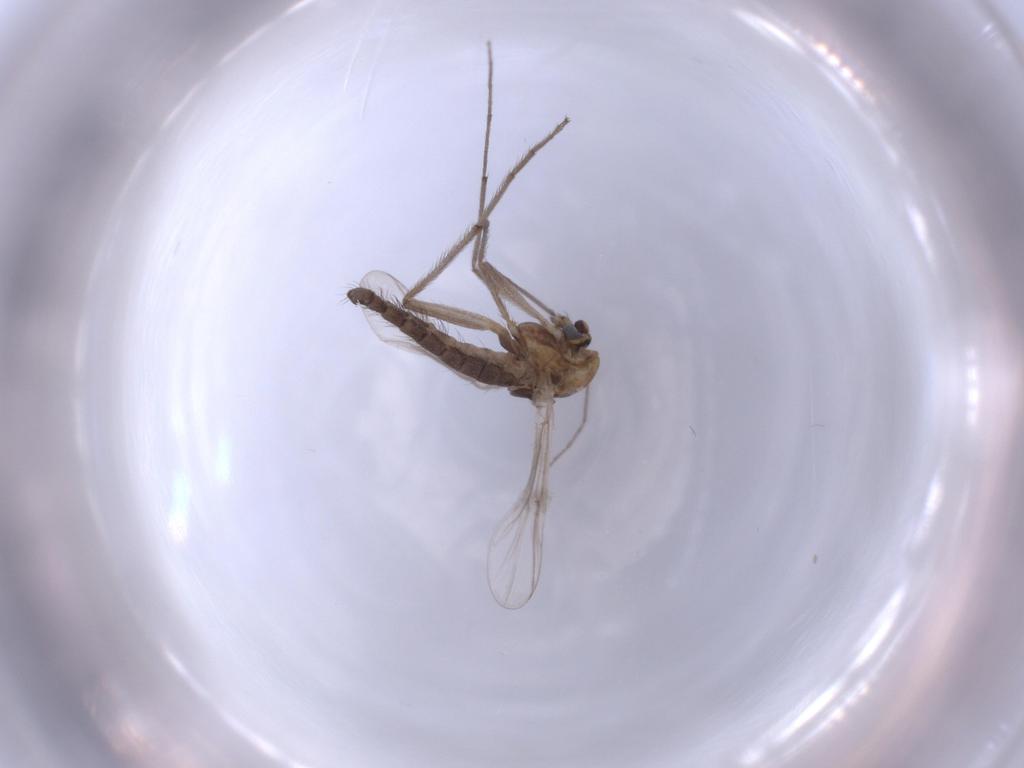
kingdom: Animalia
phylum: Arthropoda
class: Insecta
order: Diptera
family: Chironomidae
